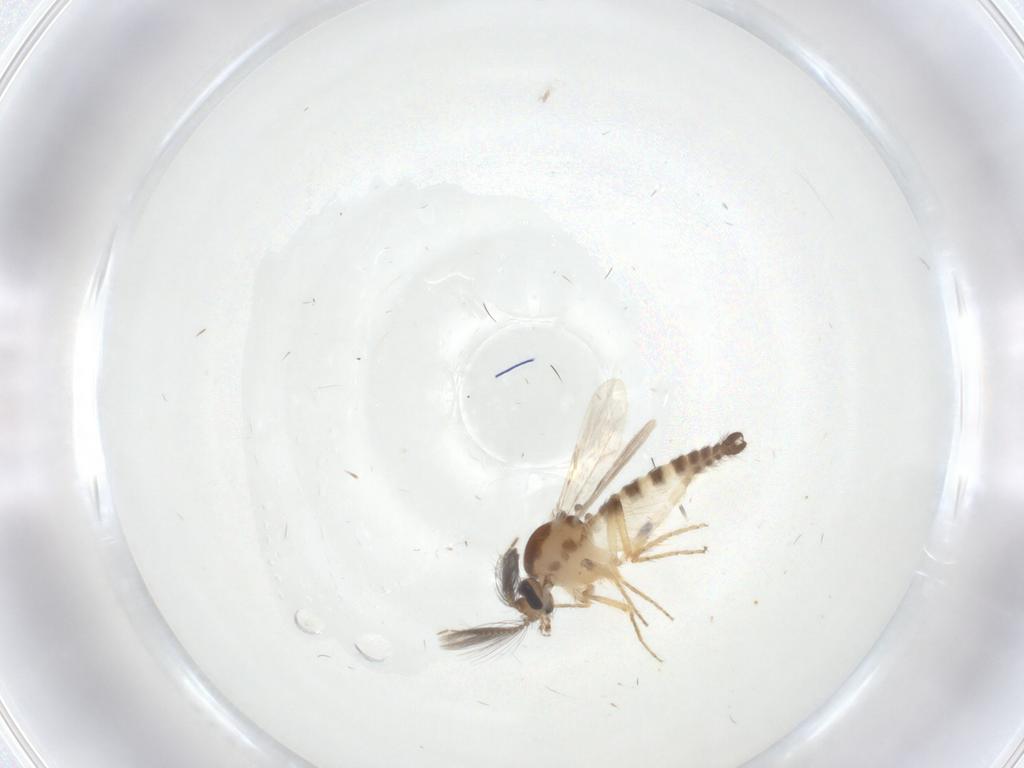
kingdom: Animalia
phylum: Arthropoda
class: Insecta
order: Diptera
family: Ceratopogonidae
